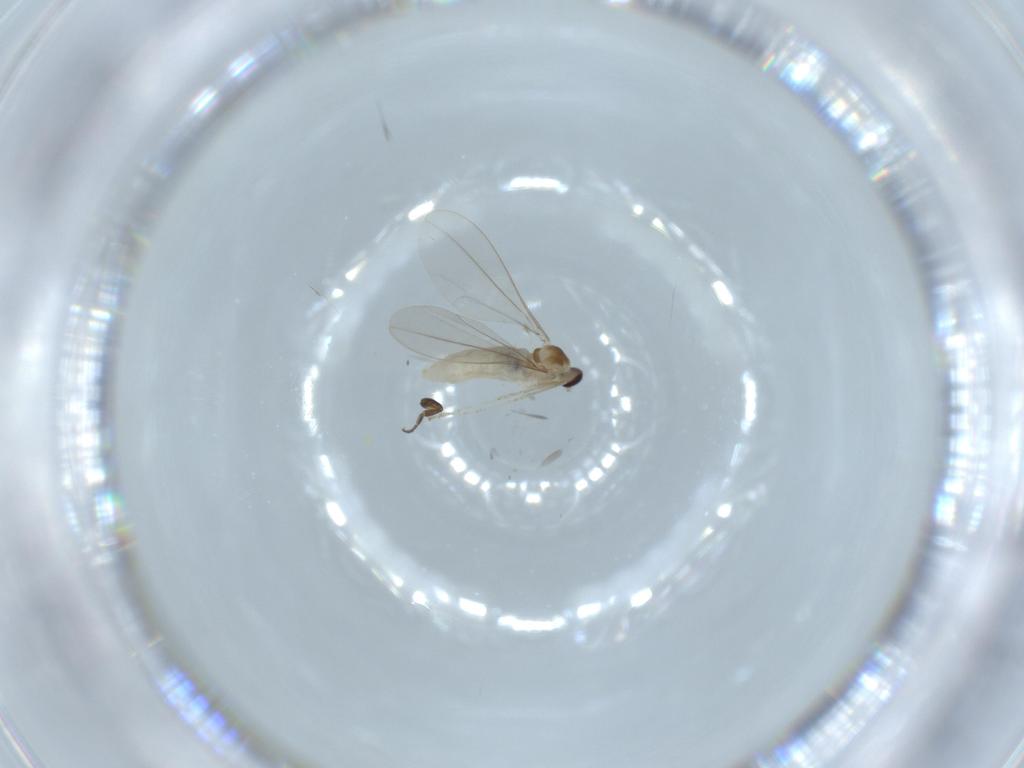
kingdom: Animalia
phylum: Arthropoda
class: Insecta
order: Diptera
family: Cecidomyiidae
